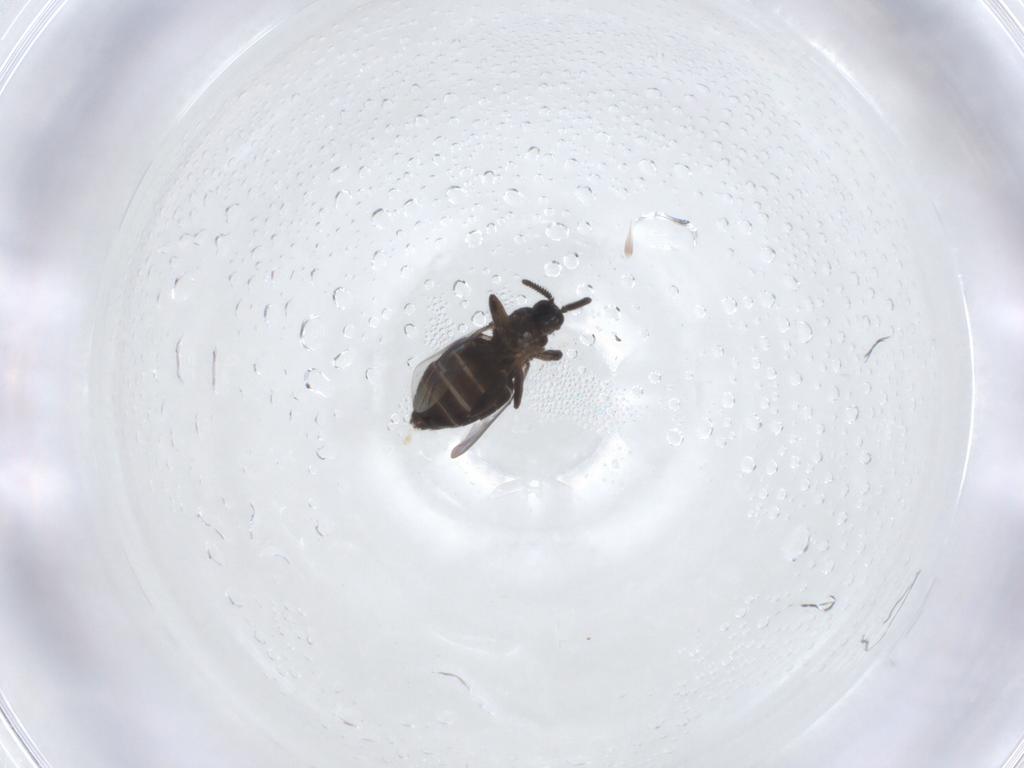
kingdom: Animalia
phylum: Arthropoda
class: Insecta
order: Diptera
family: Scatopsidae
